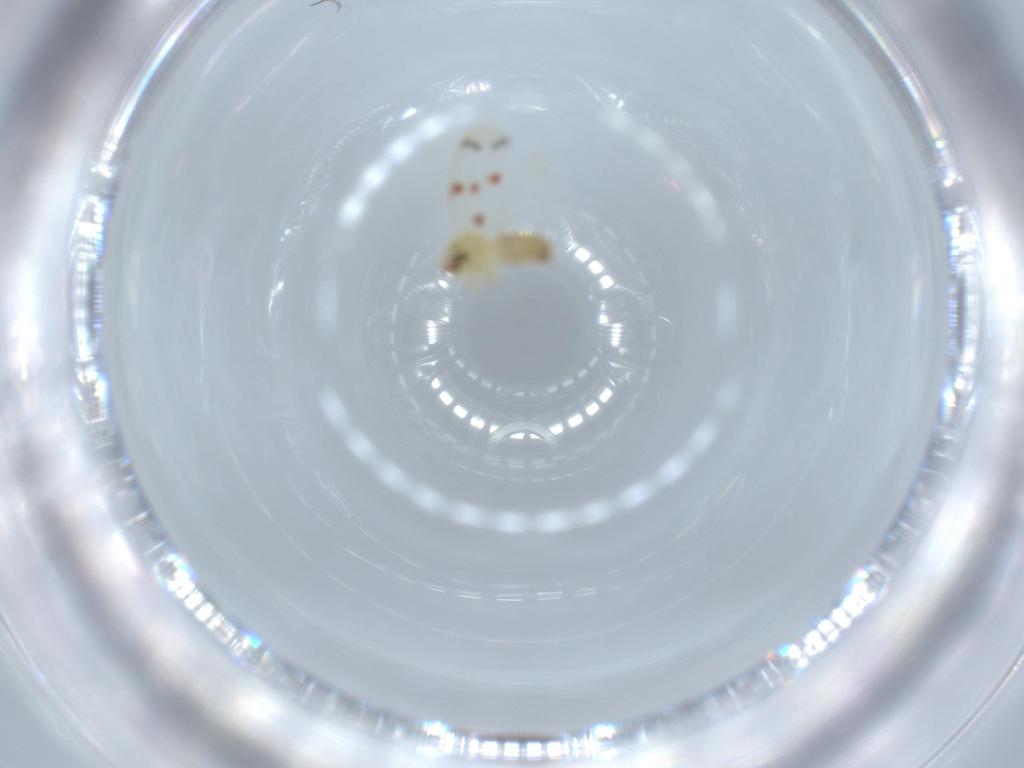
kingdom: Animalia
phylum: Arthropoda
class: Insecta
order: Hemiptera
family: Aleyrodidae
